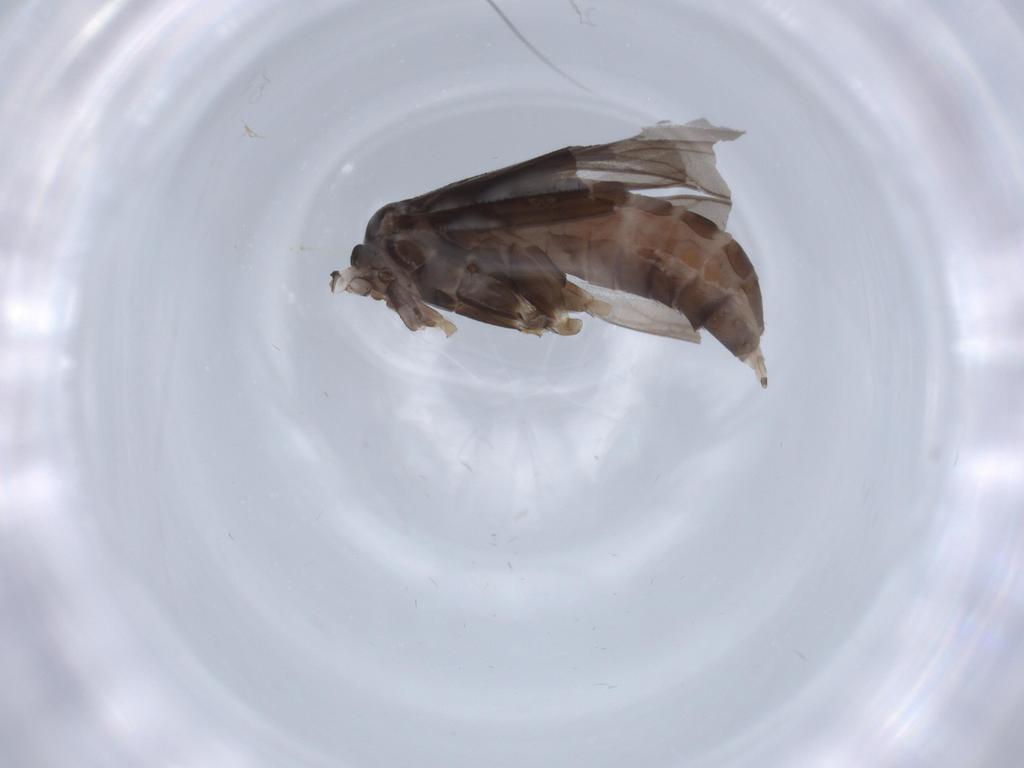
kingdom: Animalia
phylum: Arthropoda
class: Insecta
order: Trichoptera
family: Ptilocolepidae
